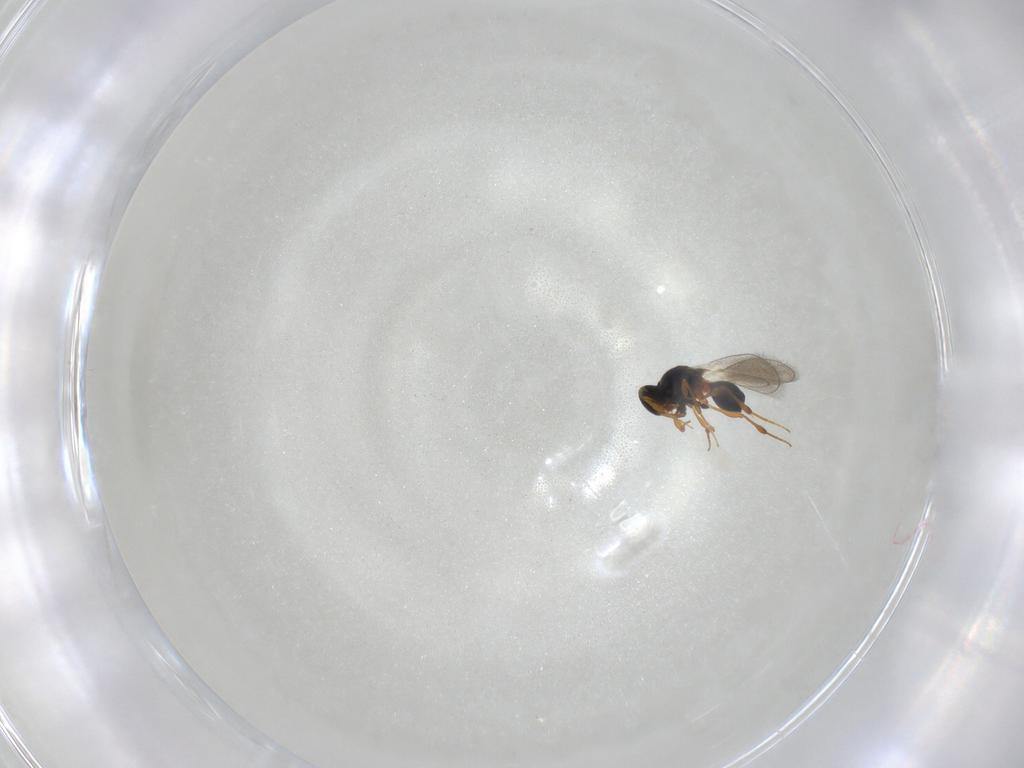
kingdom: Animalia
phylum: Arthropoda
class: Insecta
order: Hymenoptera
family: Platygastridae
